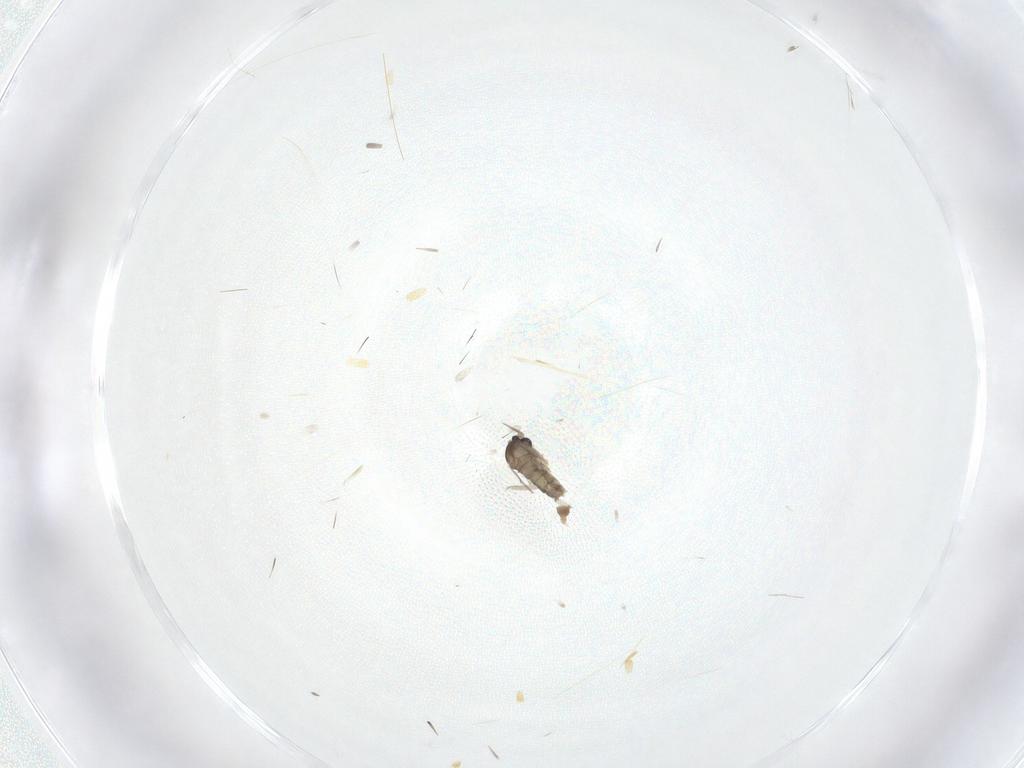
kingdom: Animalia
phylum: Arthropoda
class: Insecta
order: Diptera
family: Cecidomyiidae
